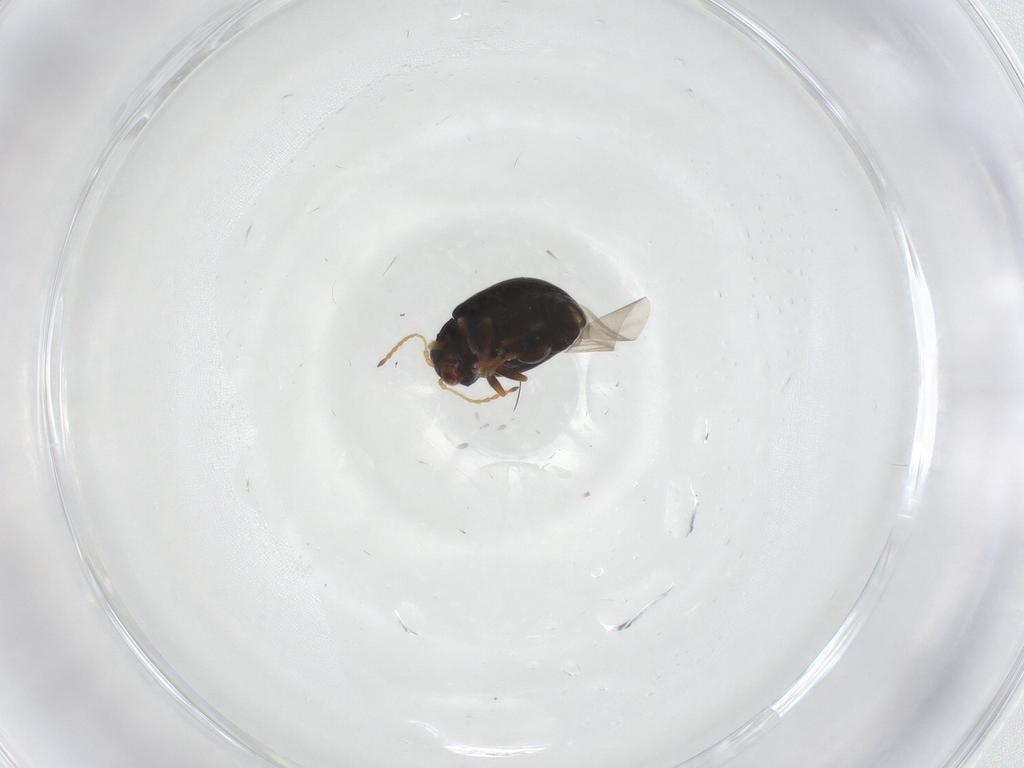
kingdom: Animalia
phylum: Arthropoda
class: Insecta
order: Coleoptera
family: Chrysomelidae
